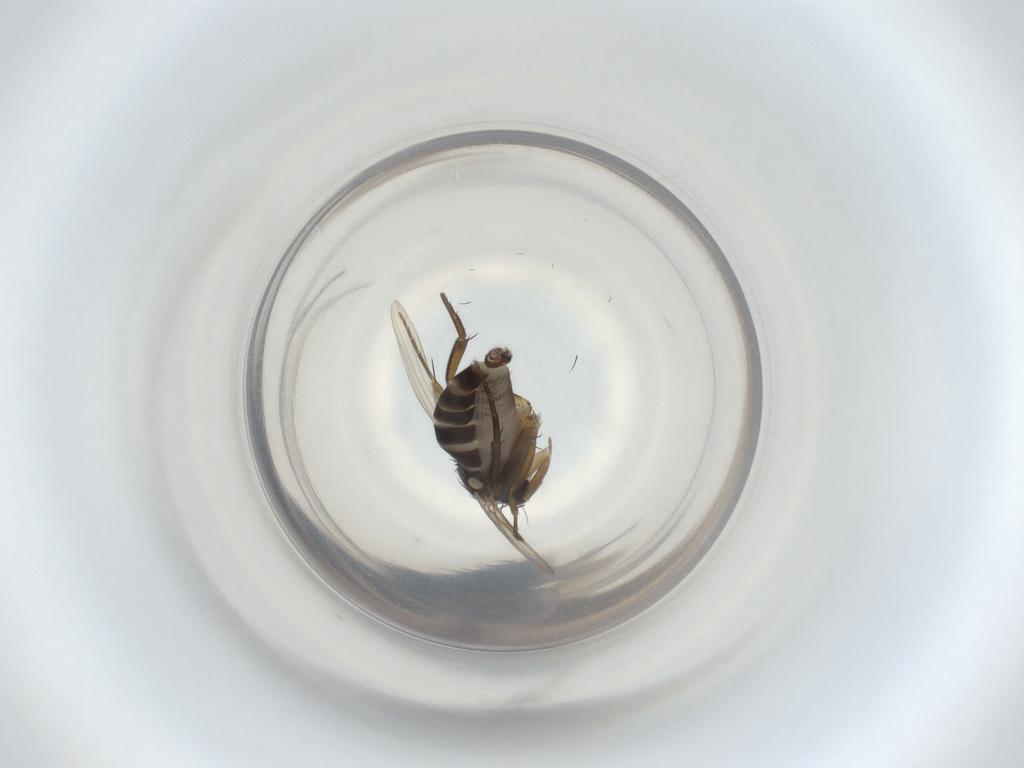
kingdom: Animalia
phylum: Arthropoda
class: Insecta
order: Diptera
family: Phoridae
